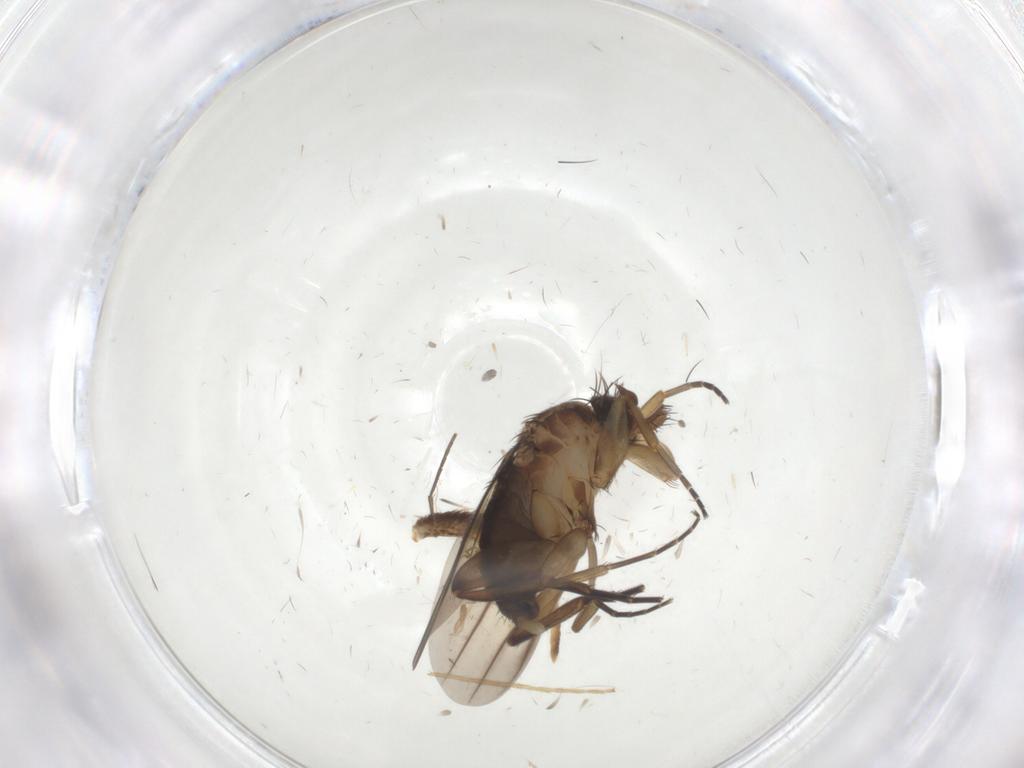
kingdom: Animalia
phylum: Arthropoda
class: Insecta
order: Diptera
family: Phoridae
